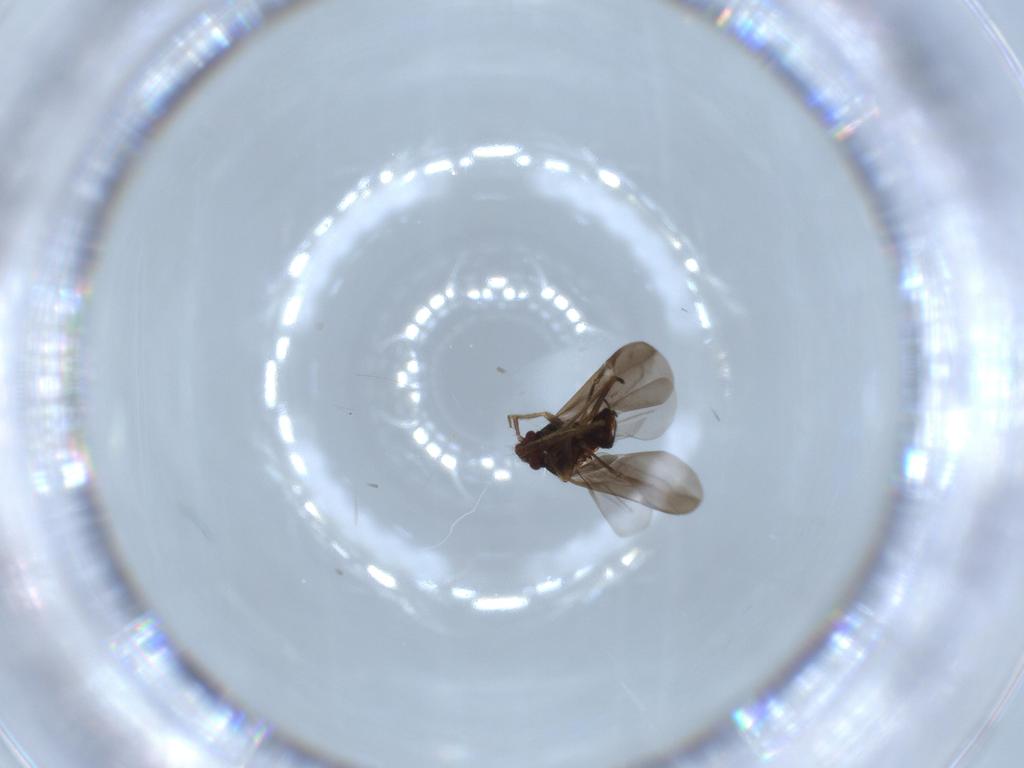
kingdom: Animalia
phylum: Arthropoda
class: Insecta
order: Hemiptera
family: Ceratocombidae
